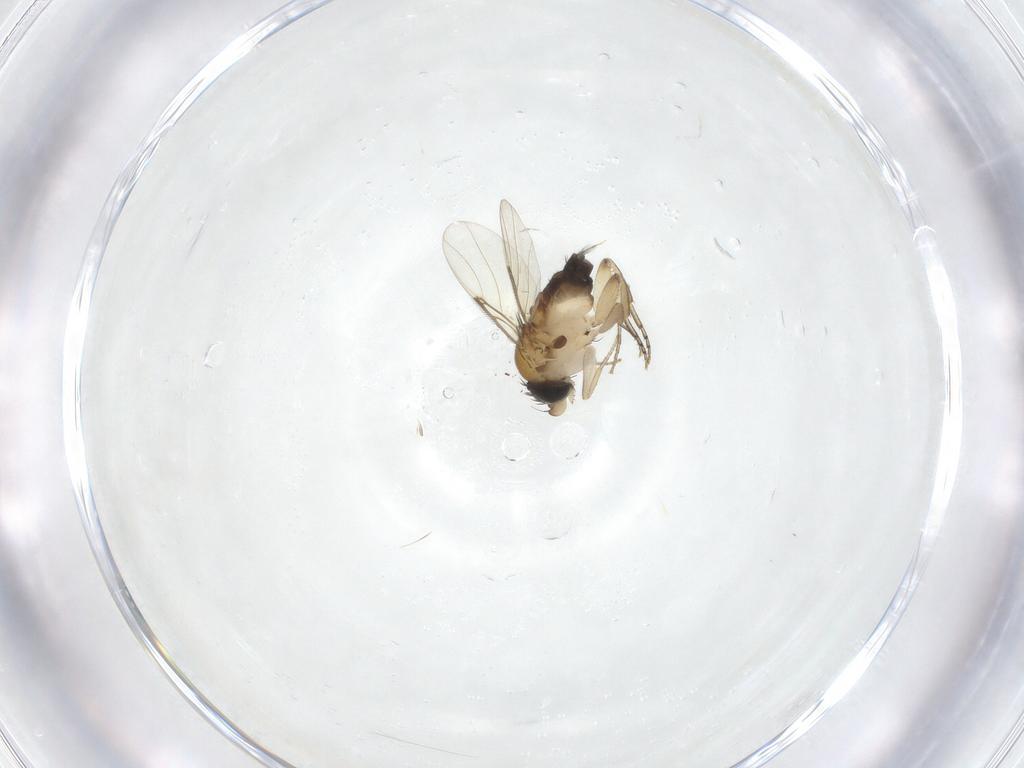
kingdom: Animalia
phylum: Arthropoda
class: Insecta
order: Diptera
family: Phoridae
